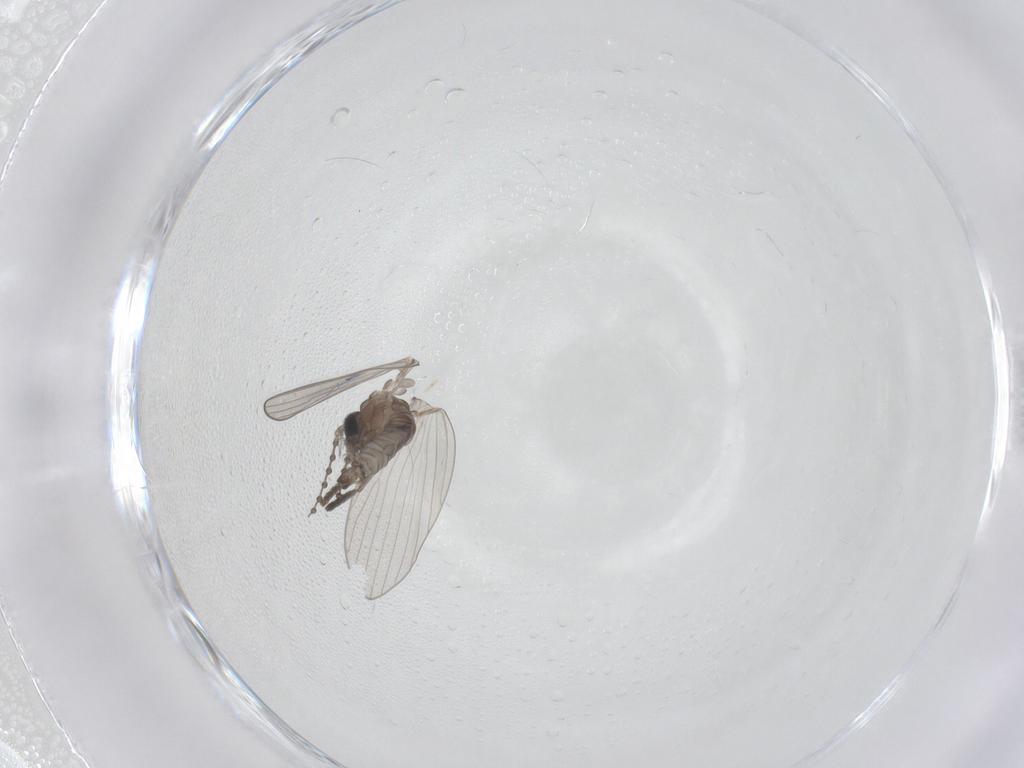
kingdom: Animalia
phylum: Arthropoda
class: Insecta
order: Diptera
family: Psychodidae
